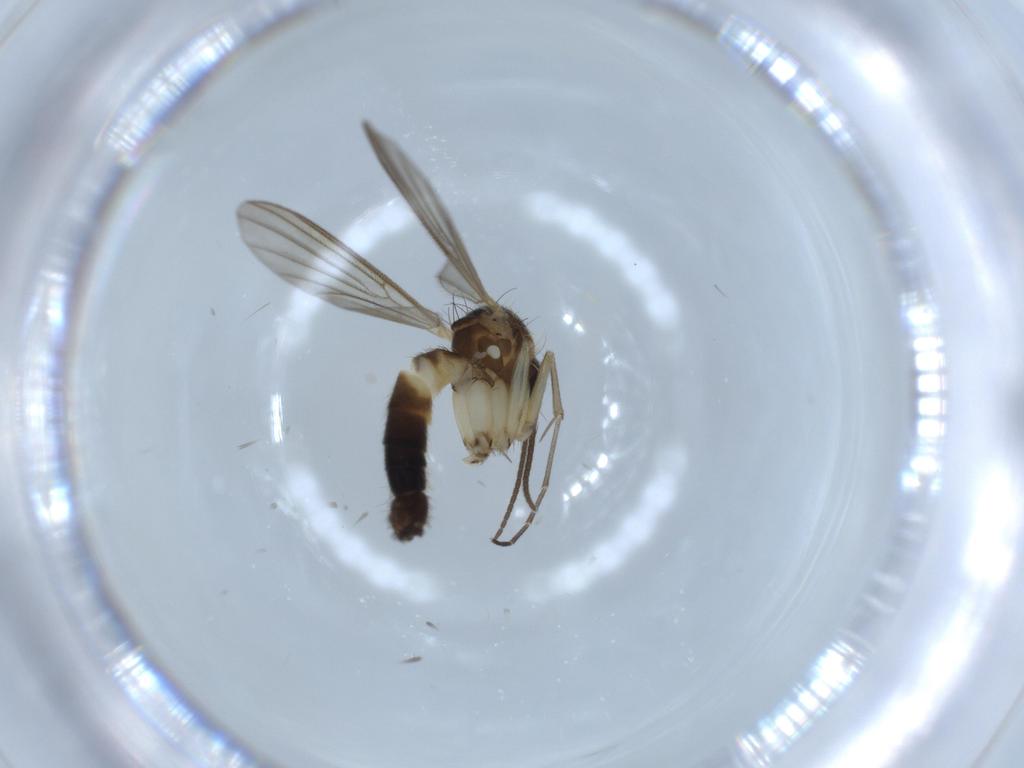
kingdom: Animalia
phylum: Arthropoda
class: Insecta
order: Diptera
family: Mycetophilidae
